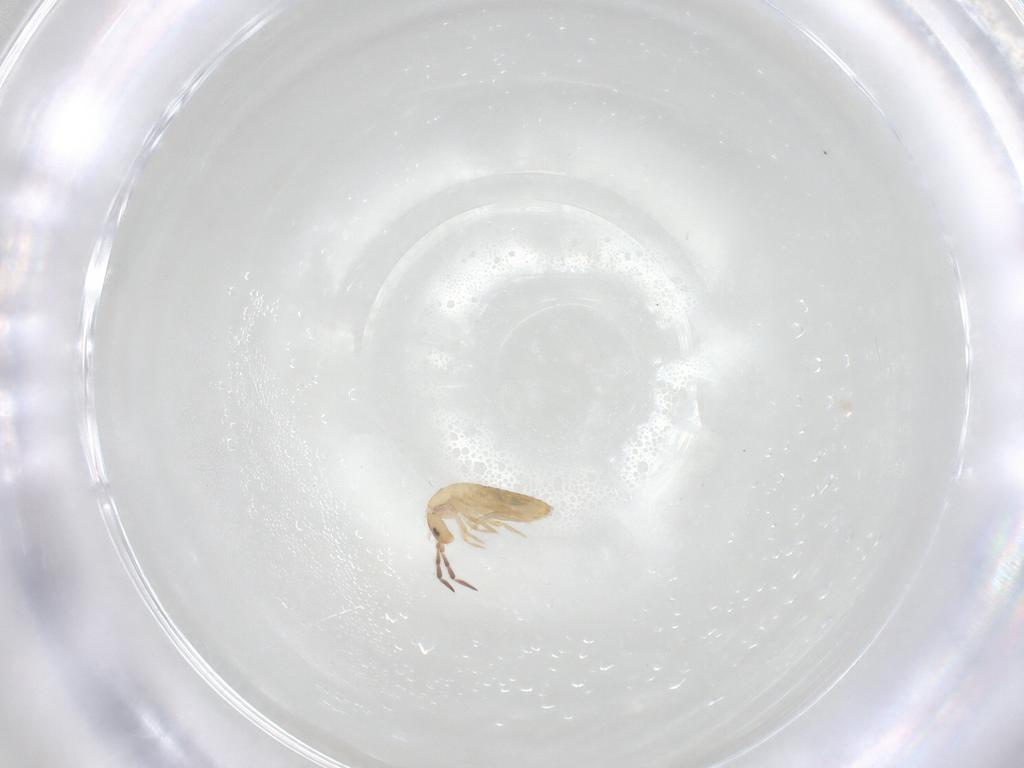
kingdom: Animalia
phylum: Arthropoda
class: Collembola
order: Entomobryomorpha
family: Entomobryidae
